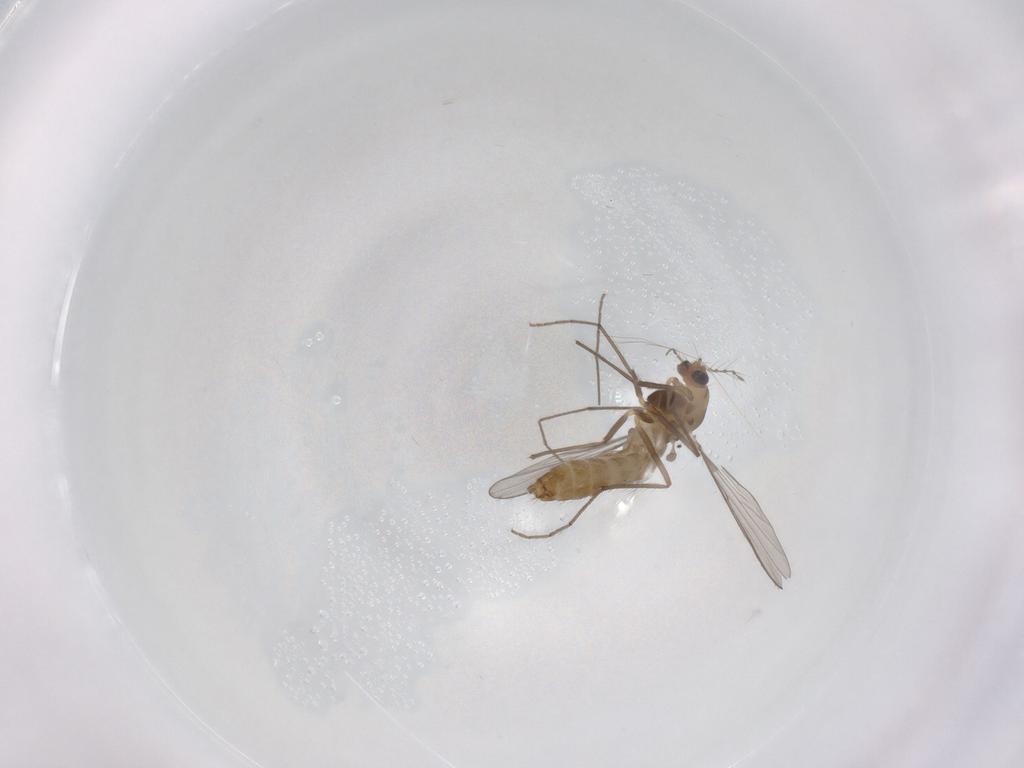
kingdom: Animalia
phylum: Arthropoda
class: Insecta
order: Diptera
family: Chironomidae
